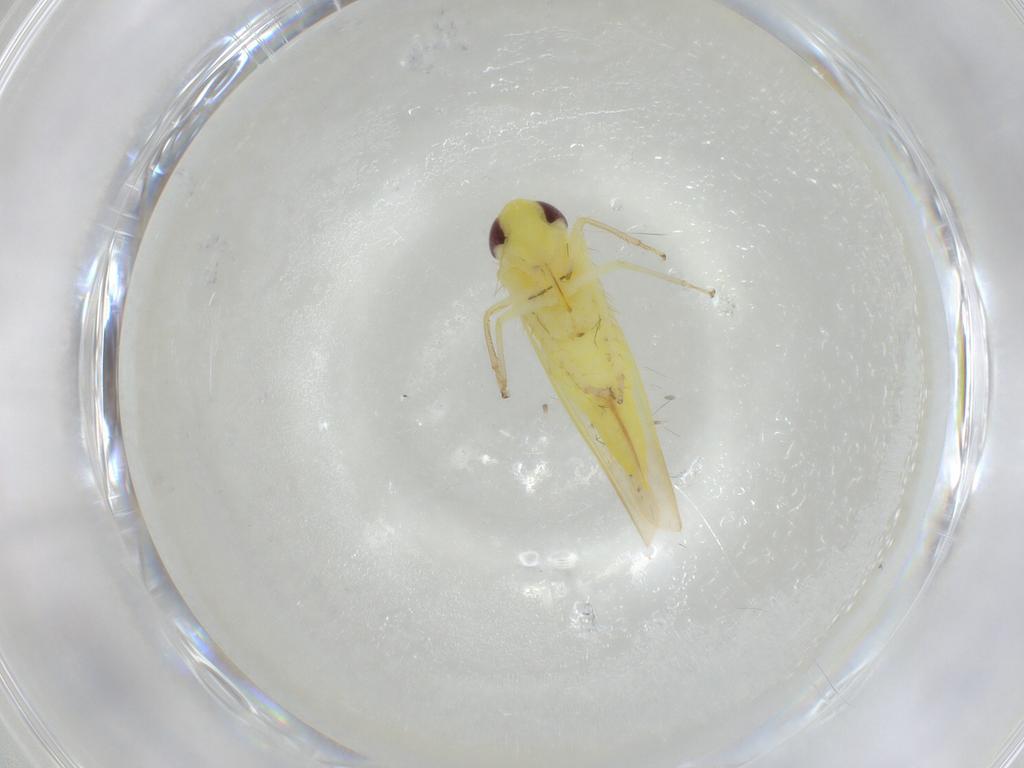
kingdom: Animalia
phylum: Arthropoda
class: Insecta
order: Hemiptera
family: Cicadellidae
